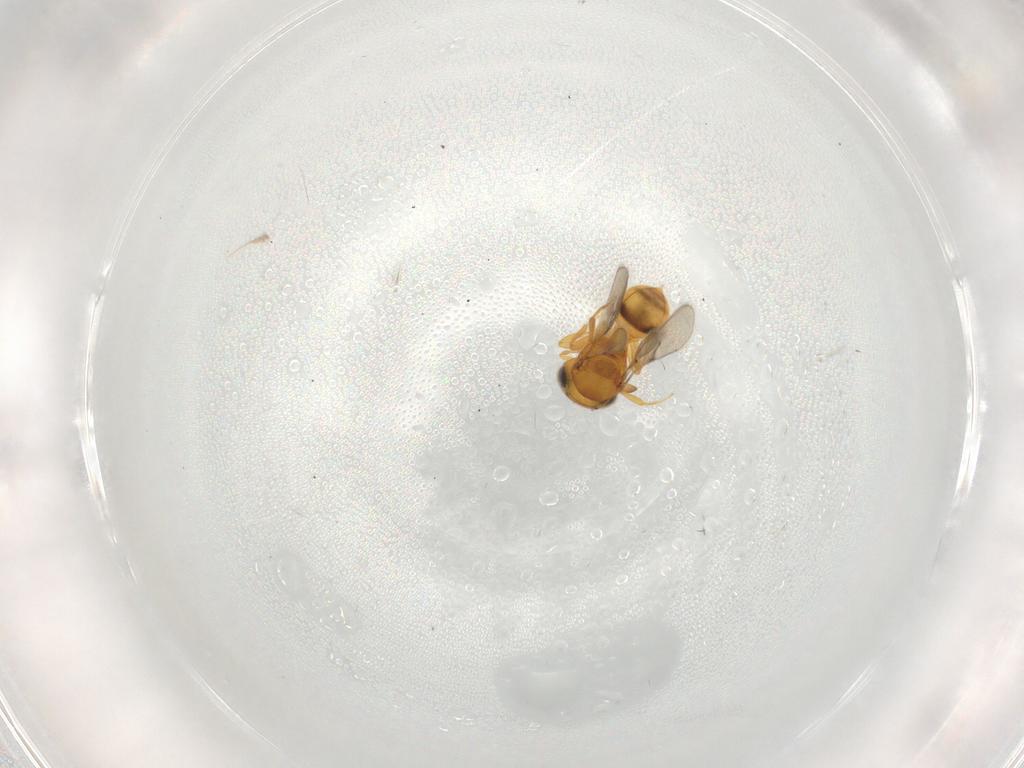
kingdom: Animalia
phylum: Arthropoda
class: Insecta
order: Hymenoptera
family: Scelionidae
